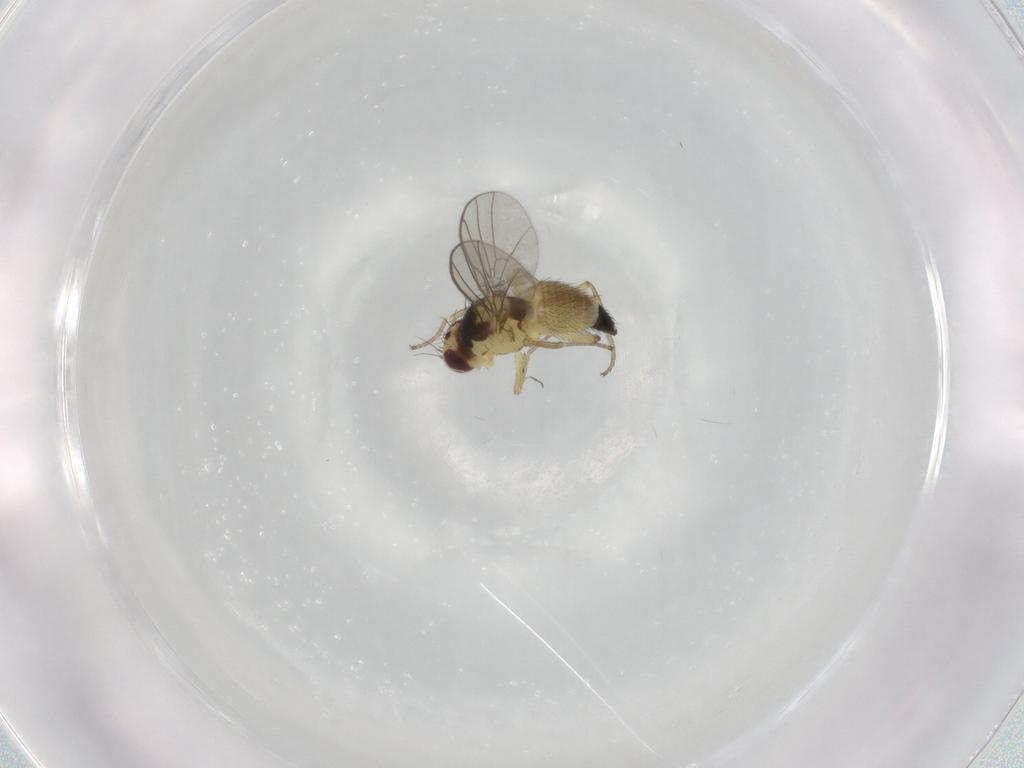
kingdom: Animalia
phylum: Arthropoda
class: Insecta
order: Diptera
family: Agromyzidae
